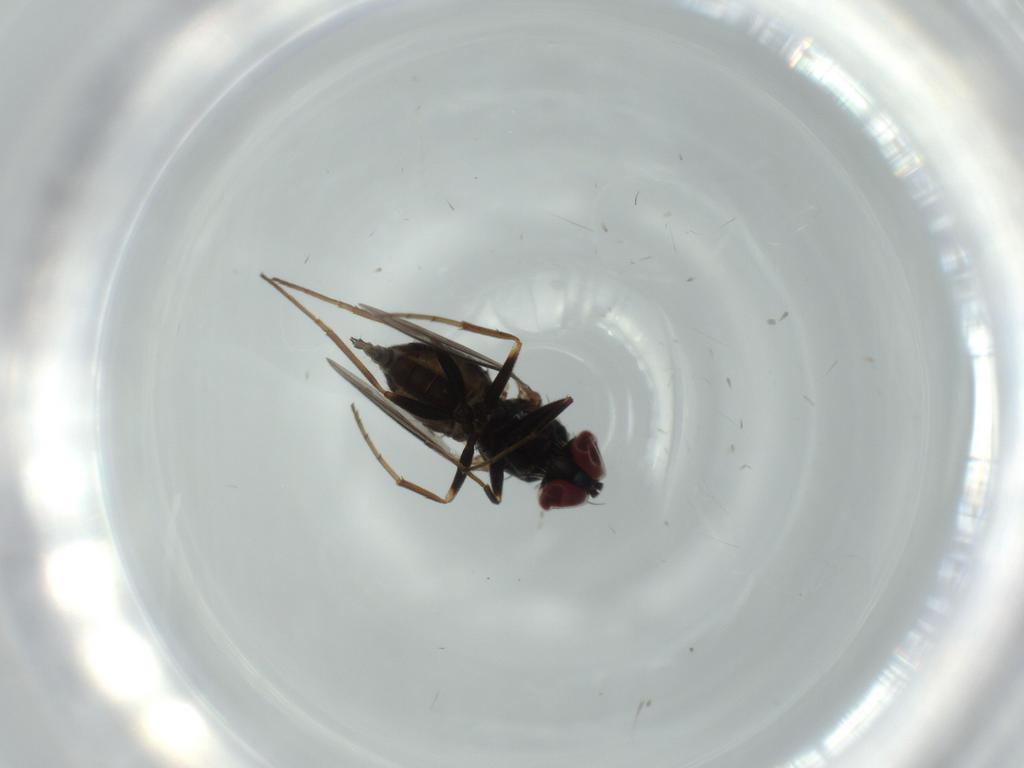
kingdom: Animalia
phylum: Arthropoda
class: Insecta
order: Diptera
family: Dolichopodidae
